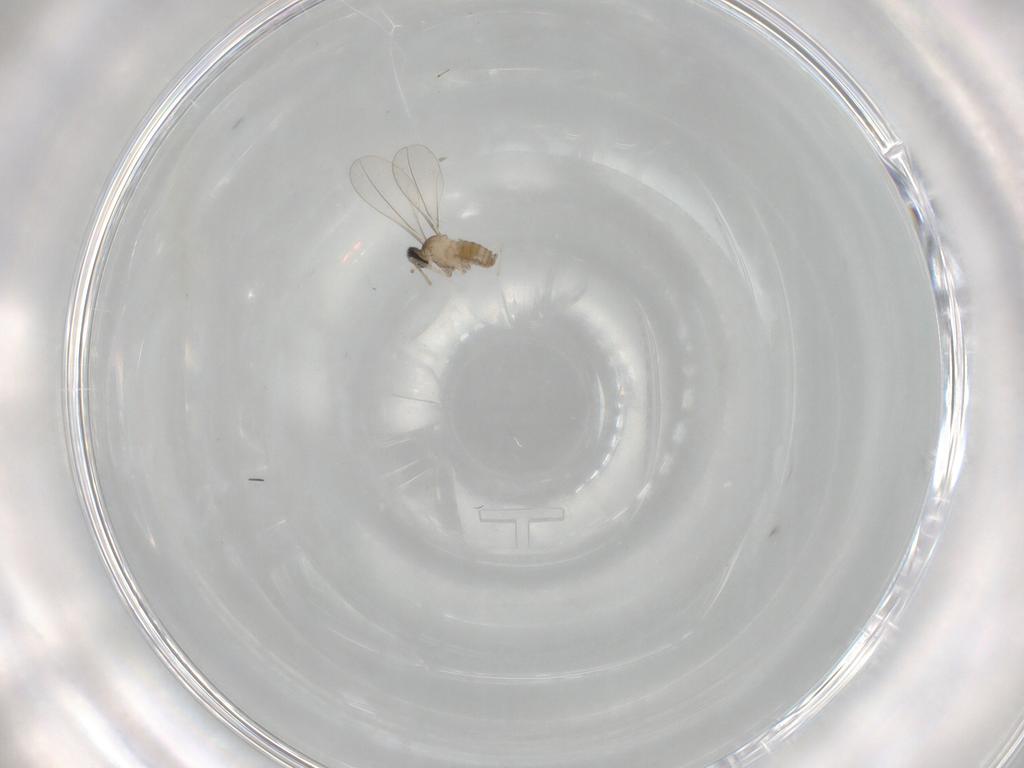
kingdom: Animalia
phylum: Arthropoda
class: Insecta
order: Diptera
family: Cecidomyiidae
